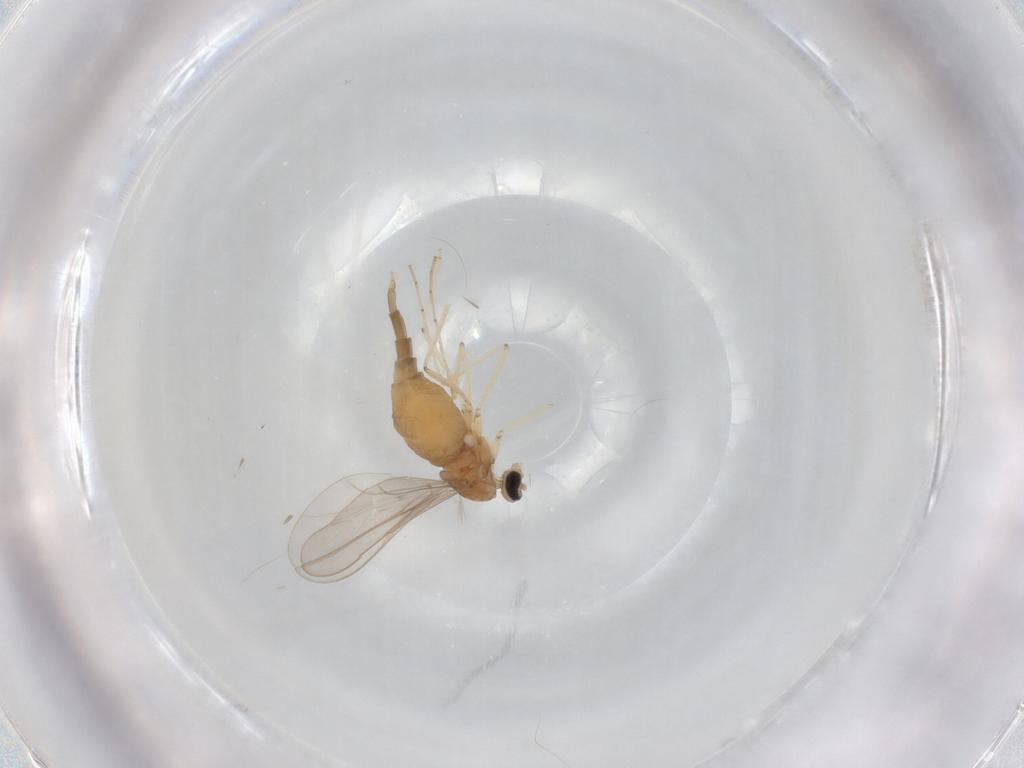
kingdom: Animalia
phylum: Arthropoda
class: Insecta
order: Diptera
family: Cecidomyiidae
